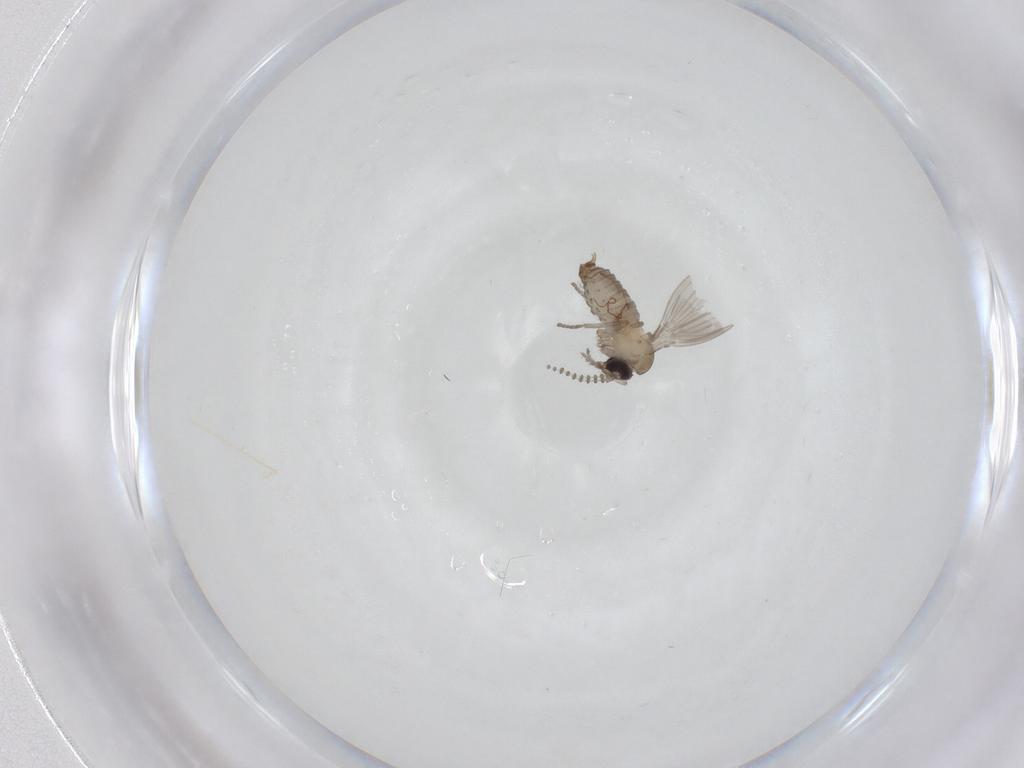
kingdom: Animalia
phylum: Arthropoda
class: Insecta
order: Diptera
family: Psychodidae
